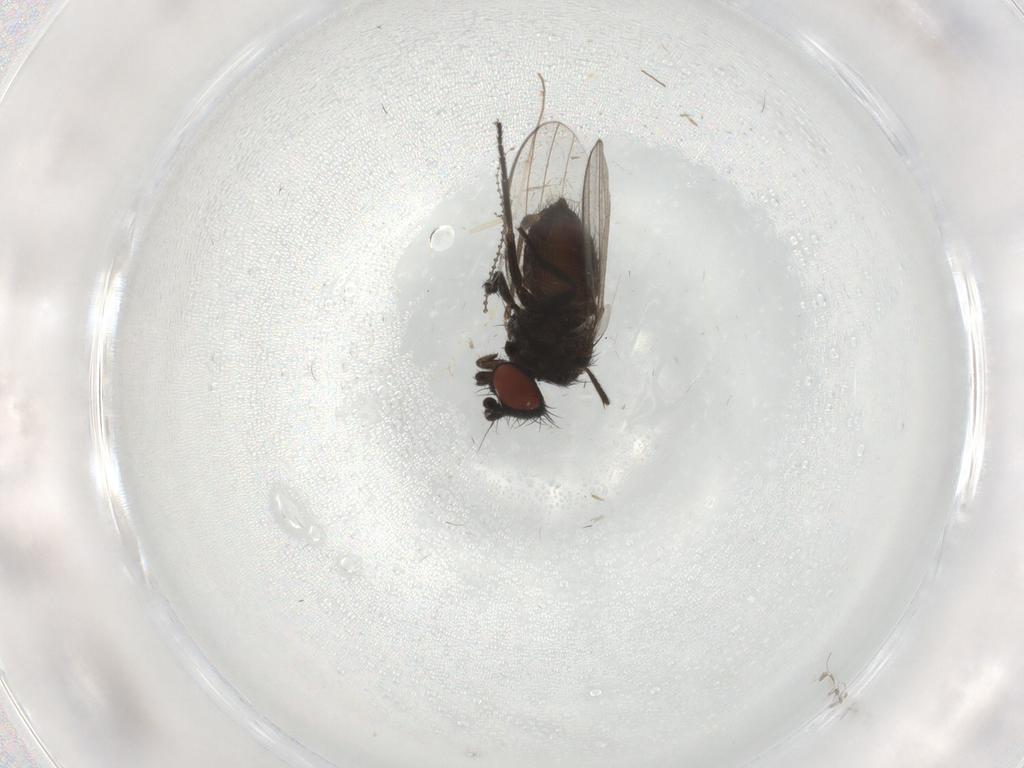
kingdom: Animalia
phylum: Arthropoda
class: Insecta
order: Diptera
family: Milichiidae
